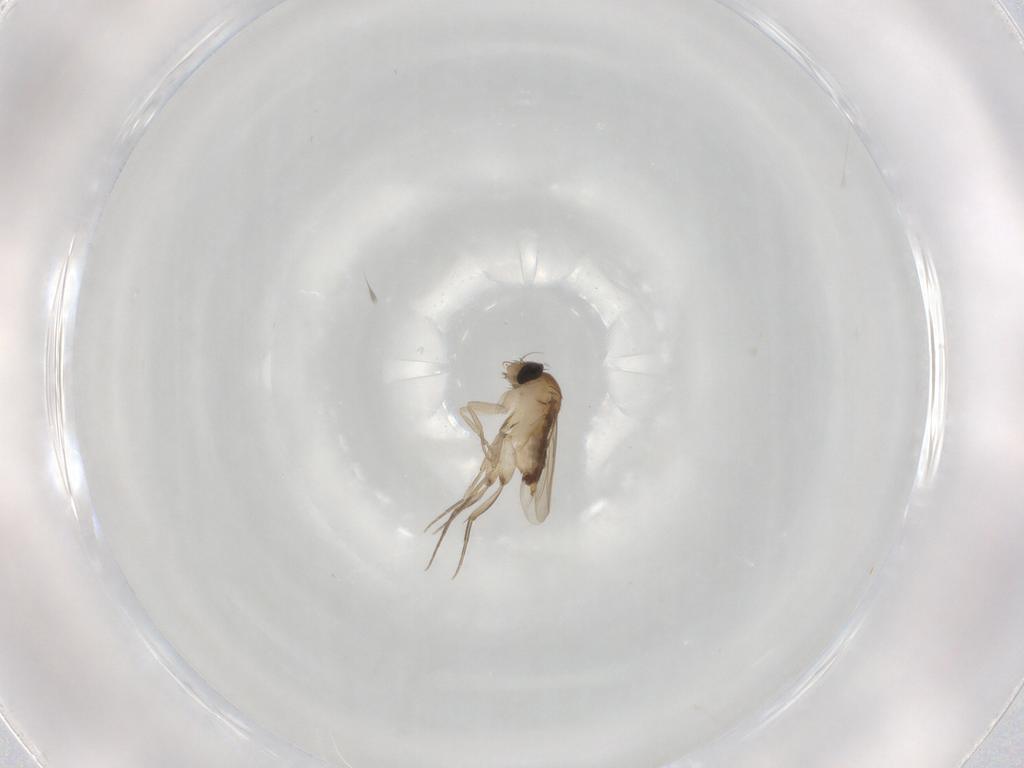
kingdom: Animalia
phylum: Arthropoda
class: Insecta
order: Diptera
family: Phoridae
